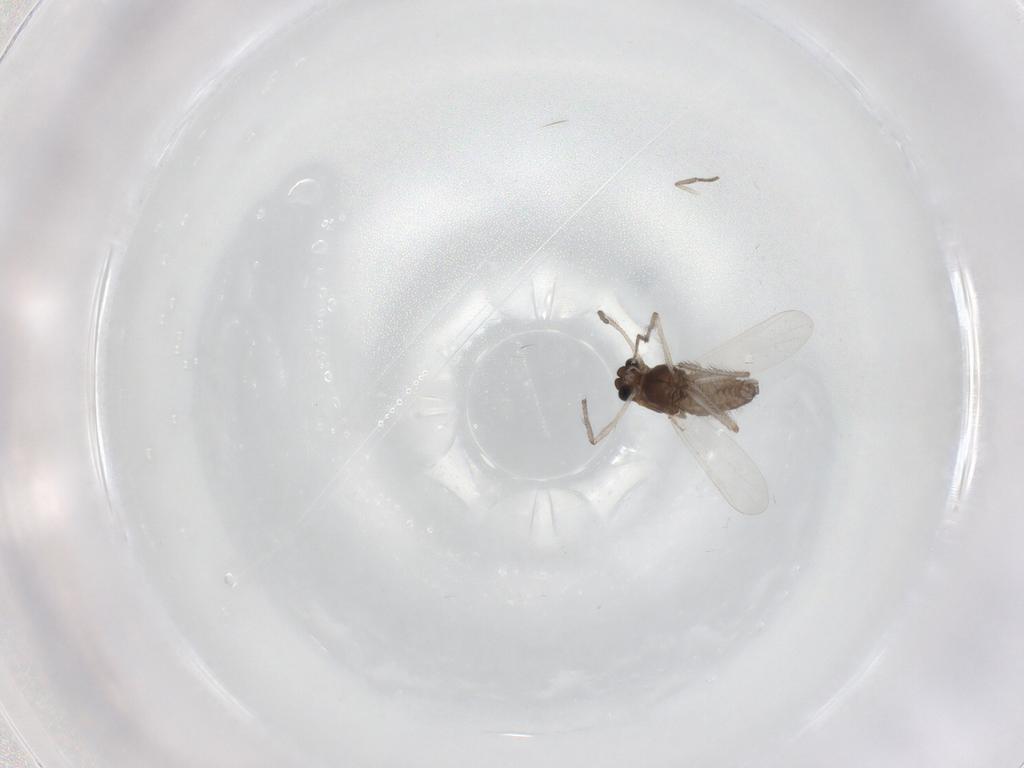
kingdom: Animalia
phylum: Arthropoda
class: Insecta
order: Diptera
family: Chironomidae
